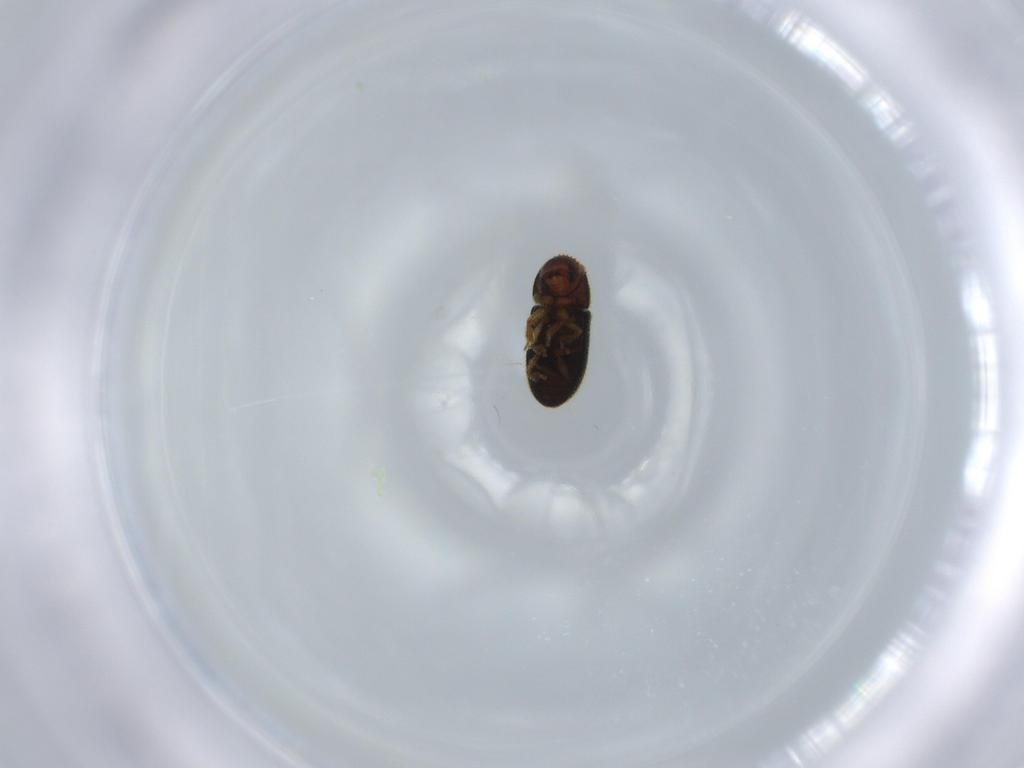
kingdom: Animalia
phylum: Arthropoda
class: Insecta
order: Coleoptera
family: Curculionidae
